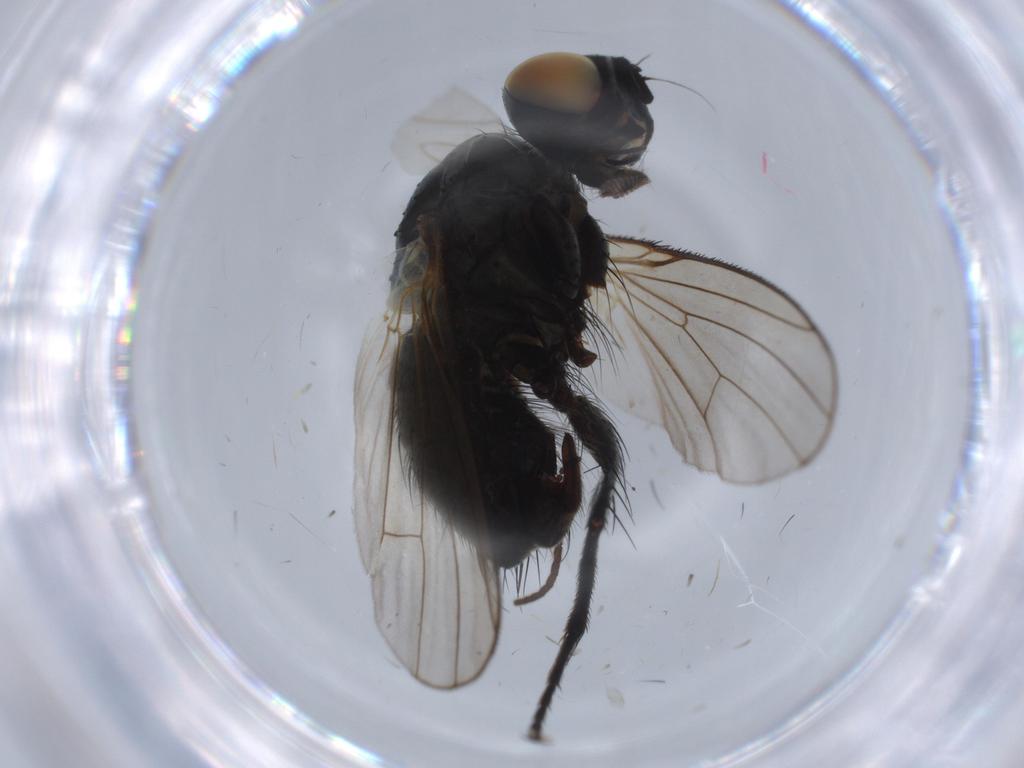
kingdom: Animalia
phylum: Arthropoda
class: Insecta
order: Diptera
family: Muscidae
